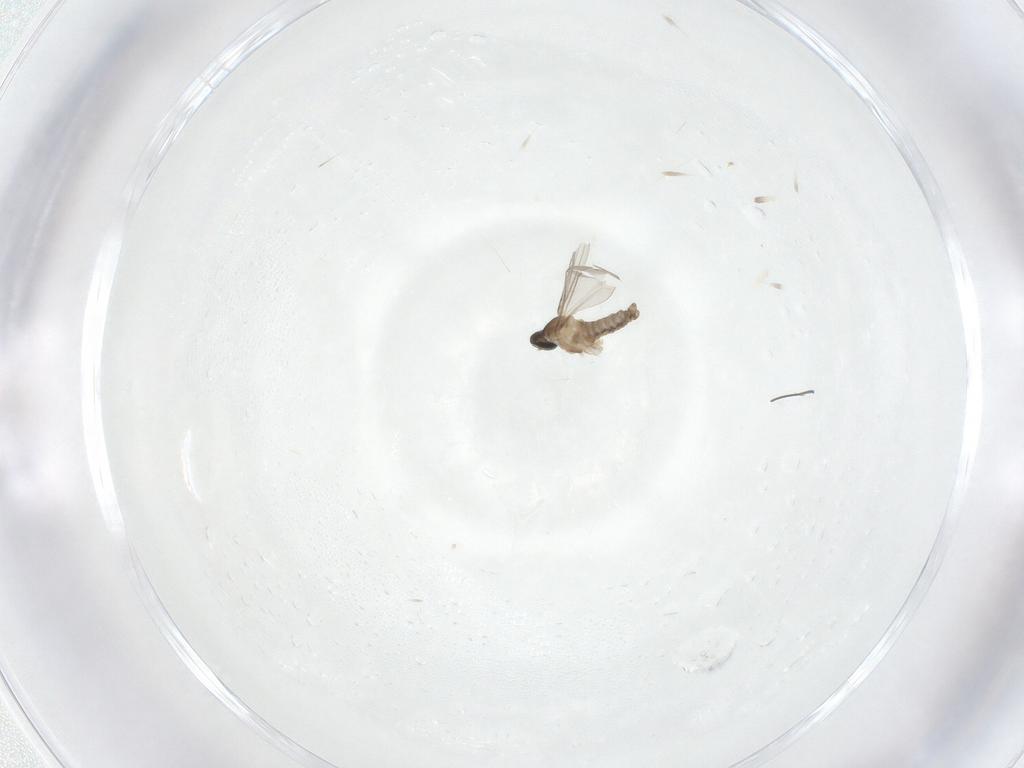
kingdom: Animalia
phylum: Arthropoda
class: Insecta
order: Diptera
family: Cecidomyiidae
